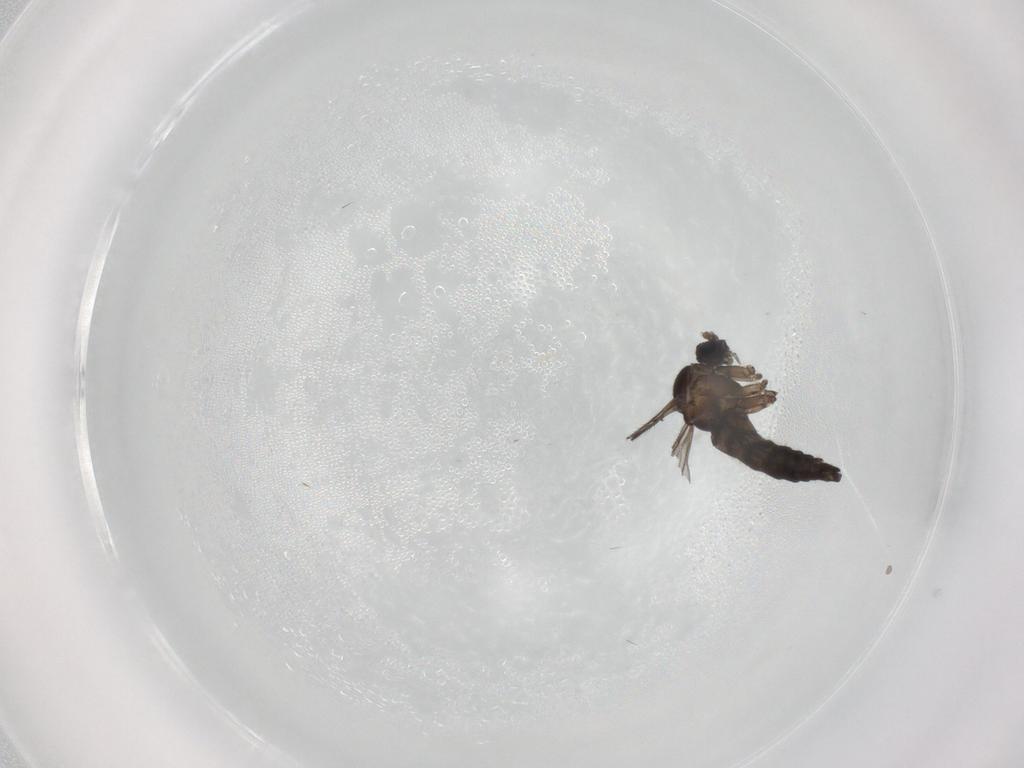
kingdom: Animalia
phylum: Arthropoda
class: Insecta
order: Diptera
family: Sciaridae
